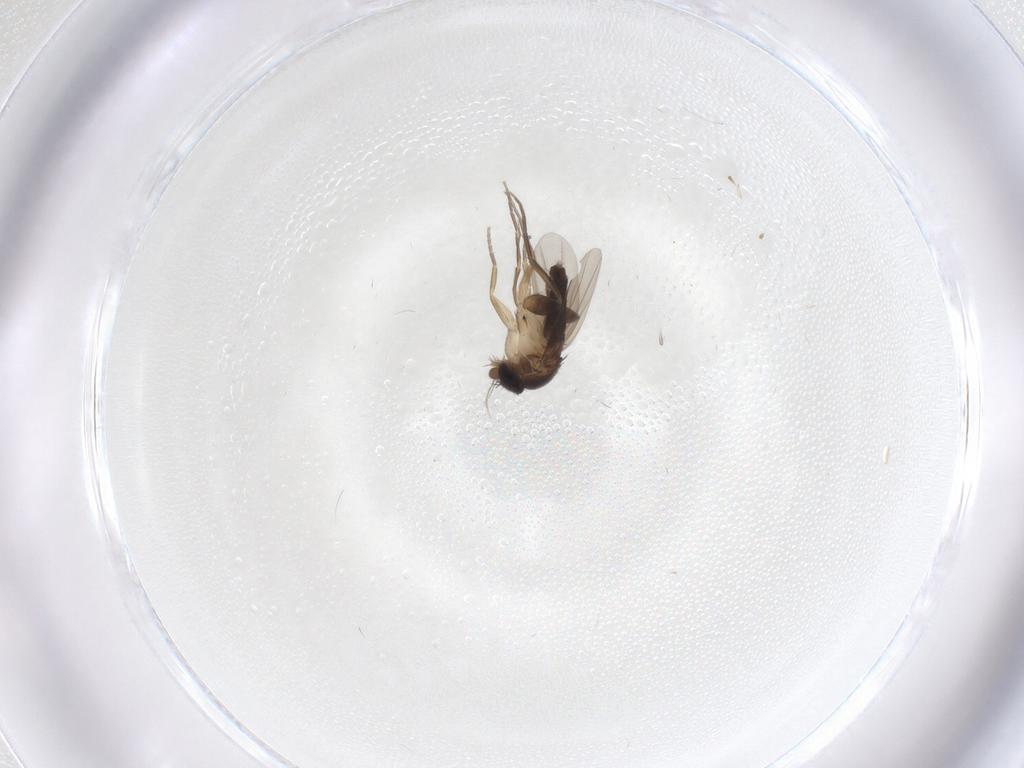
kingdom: Animalia
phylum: Arthropoda
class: Insecta
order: Diptera
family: Phoridae
